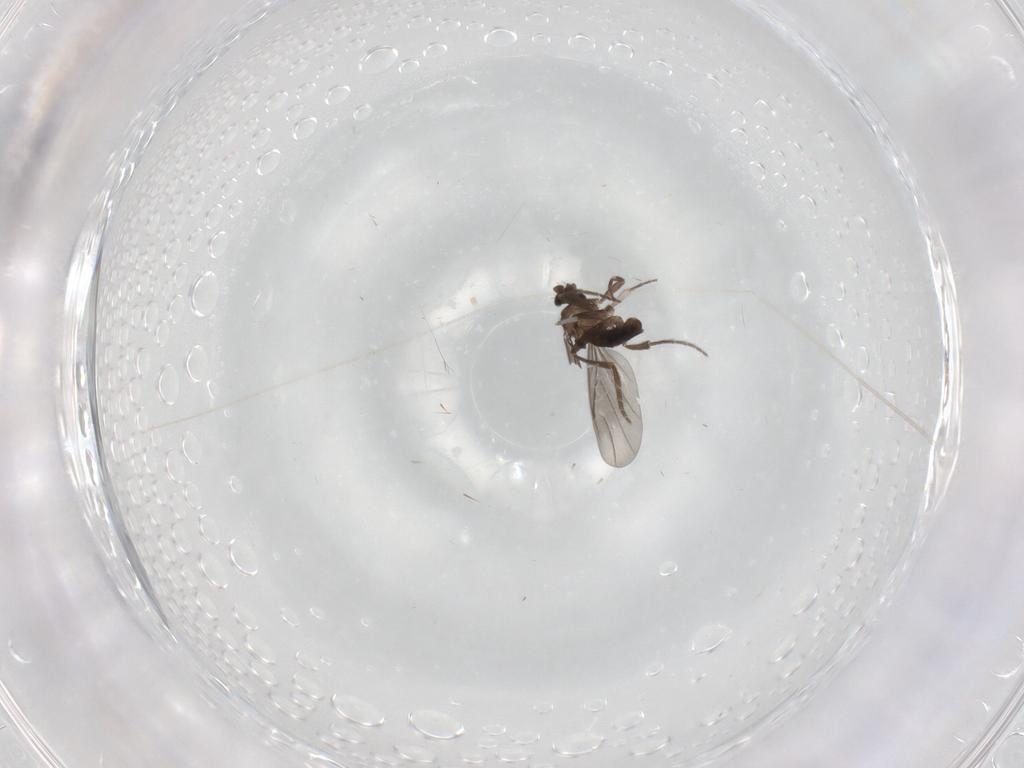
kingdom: Animalia
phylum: Arthropoda
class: Insecta
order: Diptera
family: Phoridae
